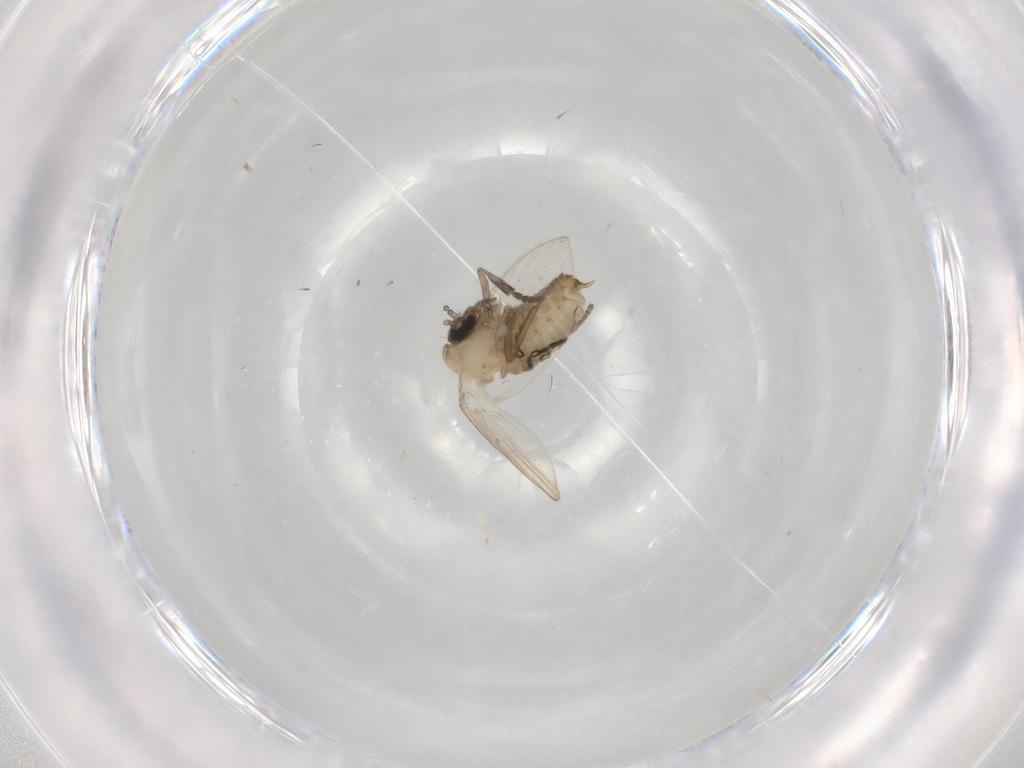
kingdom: Animalia
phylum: Arthropoda
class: Insecta
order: Diptera
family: Psychodidae
